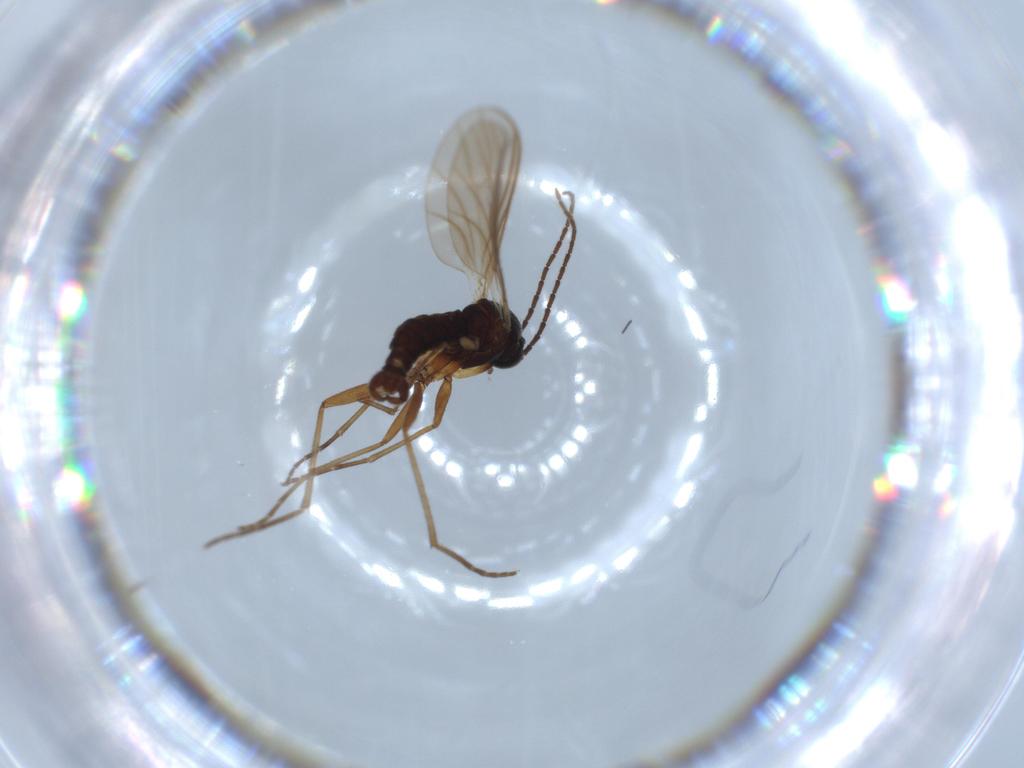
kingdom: Animalia
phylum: Arthropoda
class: Insecta
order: Diptera
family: Sciaridae
